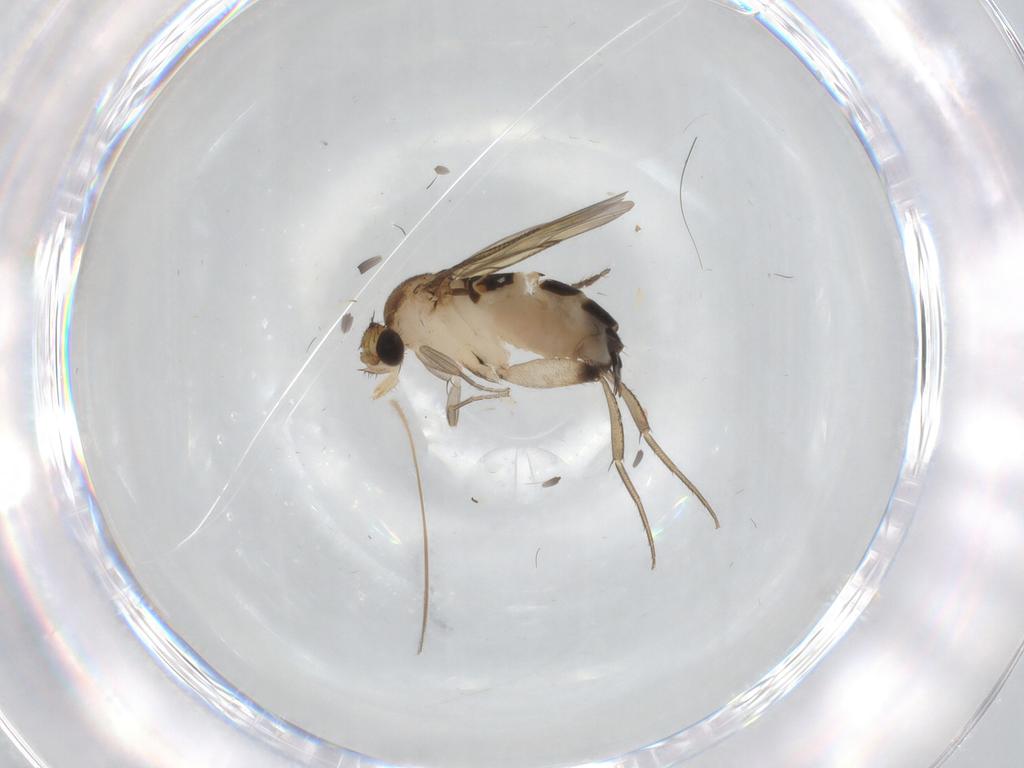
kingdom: Animalia
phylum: Arthropoda
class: Insecta
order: Diptera
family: Phoridae
